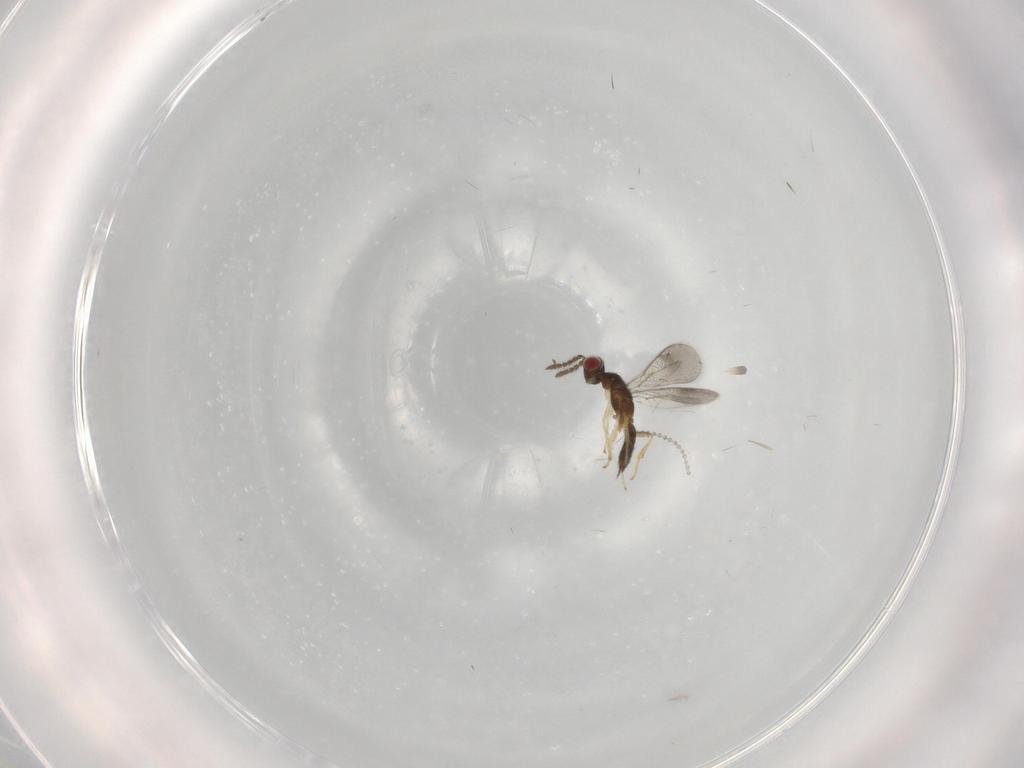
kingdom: Animalia
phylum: Arthropoda
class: Insecta
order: Hymenoptera
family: Eulophidae
